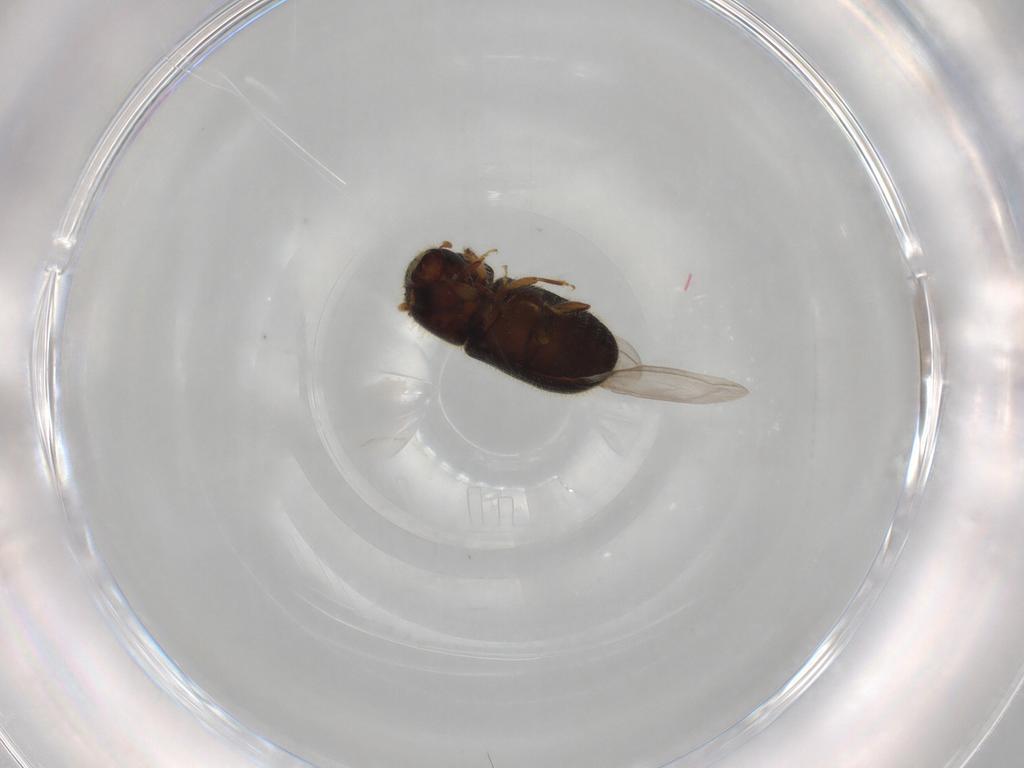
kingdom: Animalia
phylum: Arthropoda
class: Insecta
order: Coleoptera
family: Curculionidae
